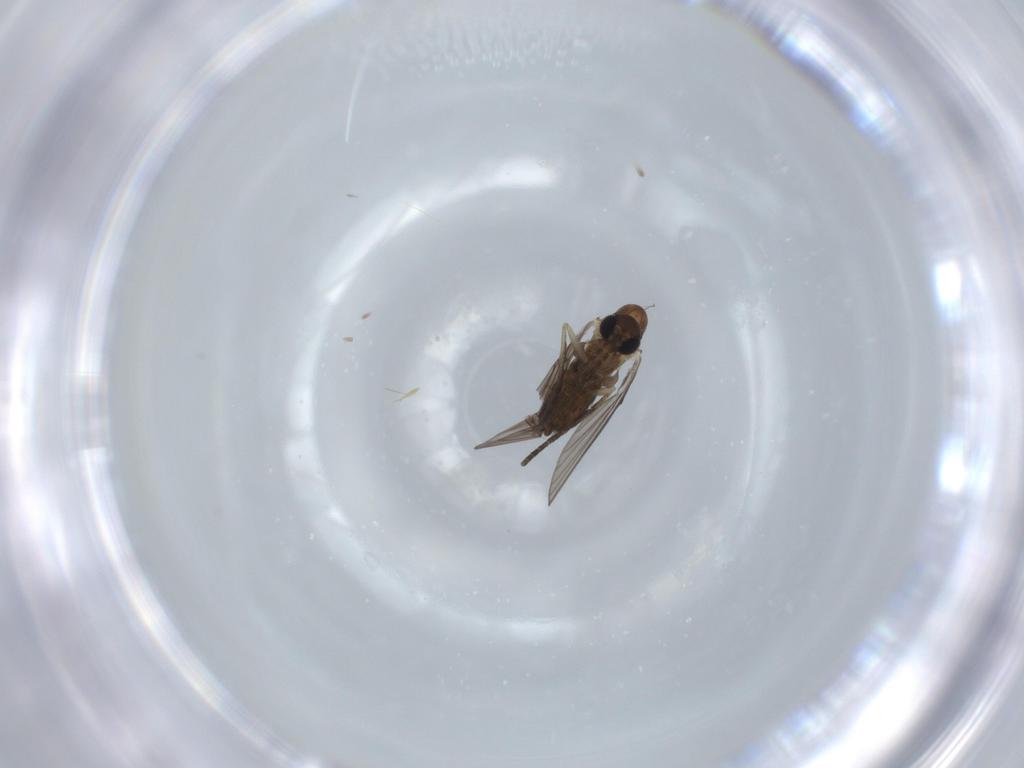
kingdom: Animalia
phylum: Arthropoda
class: Insecta
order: Diptera
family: Psychodidae
